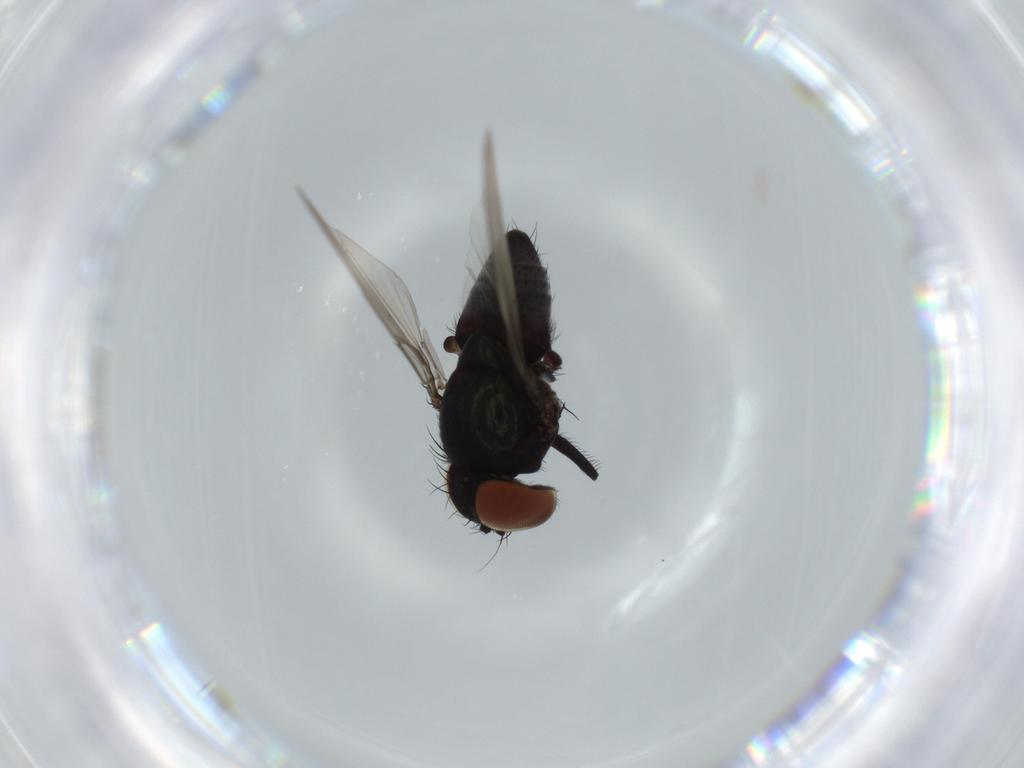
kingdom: Animalia
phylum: Arthropoda
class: Insecta
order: Diptera
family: Milichiidae
